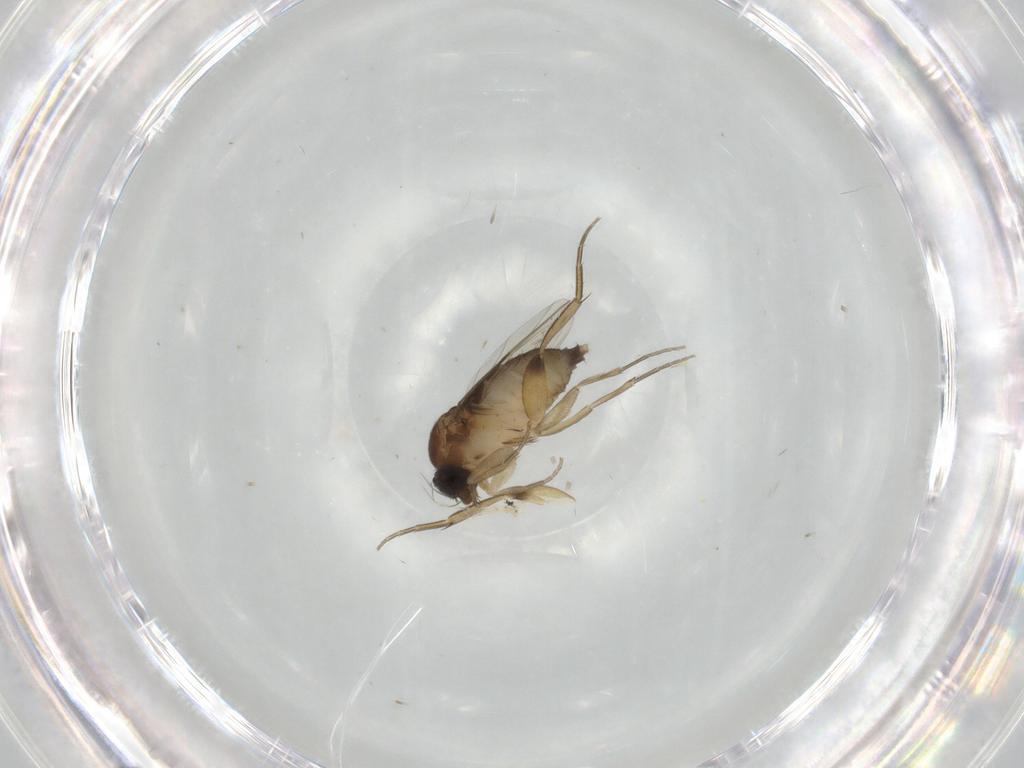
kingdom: Animalia
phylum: Arthropoda
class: Insecta
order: Diptera
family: Phoridae
